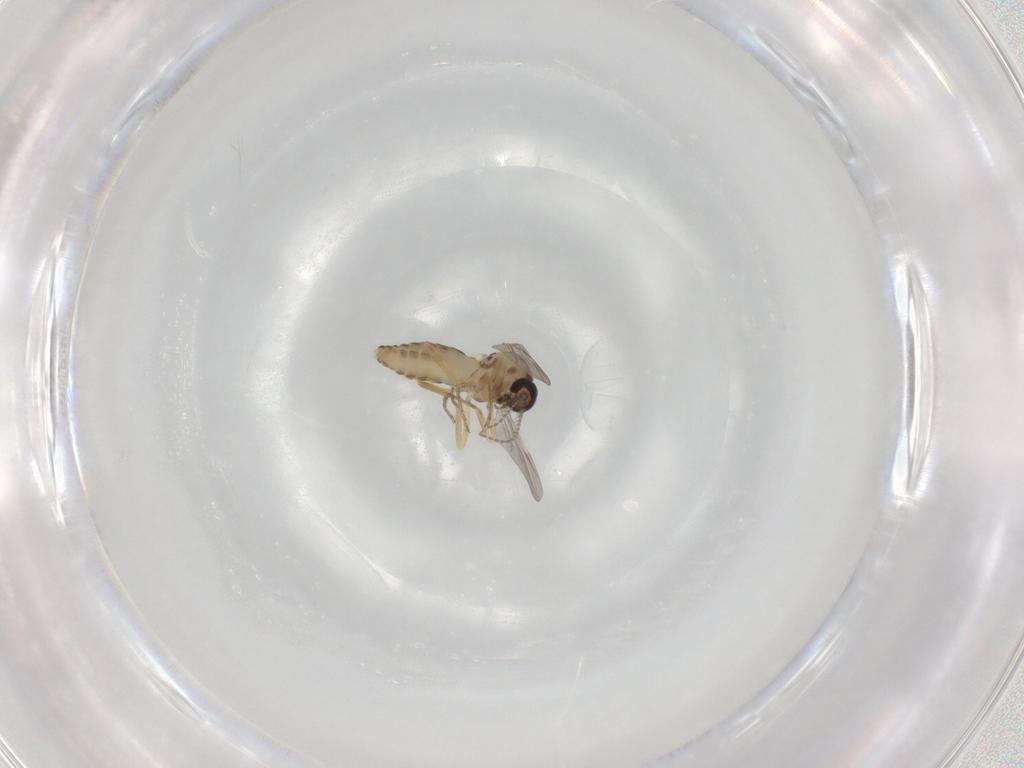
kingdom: Animalia
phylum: Arthropoda
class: Insecta
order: Diptera
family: Ceratopogonidae
